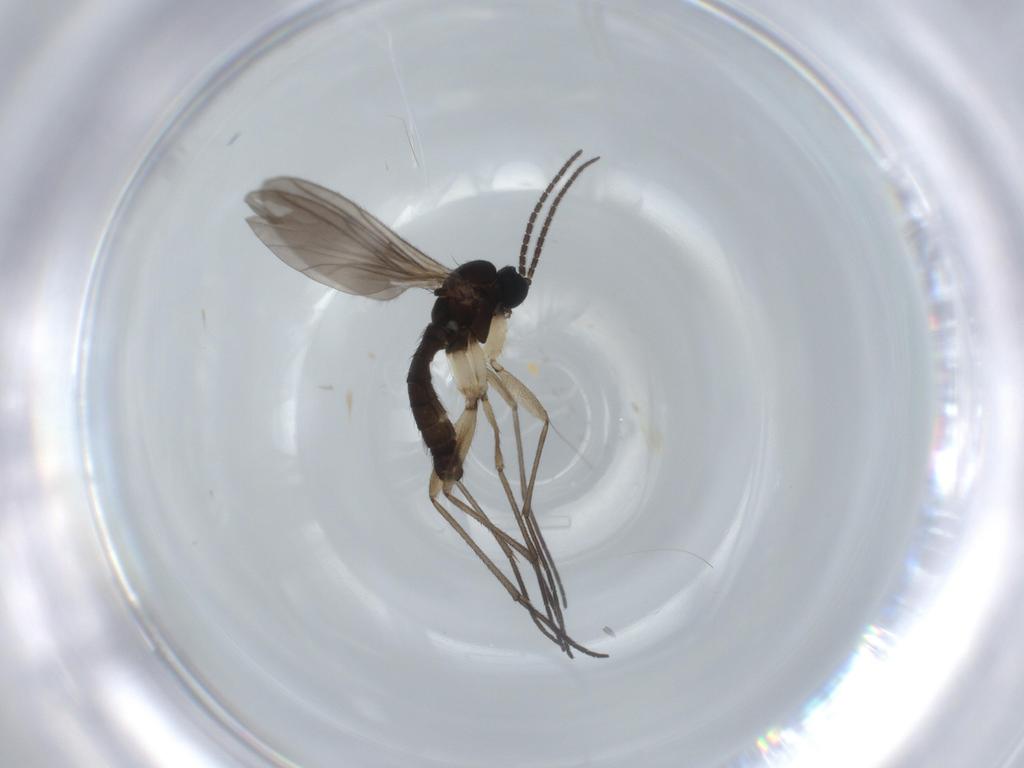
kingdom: Animalia
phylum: Arthropoda
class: Insecta
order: Diptera
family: Sciaridae
